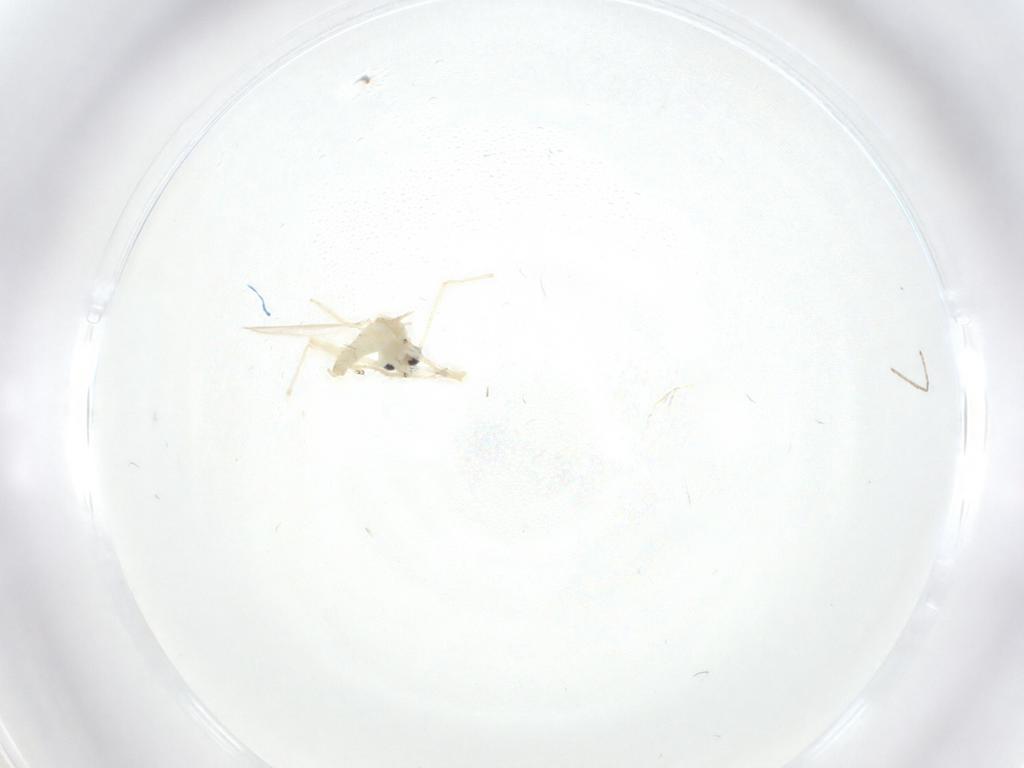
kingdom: Animalia
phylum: Arthropoda
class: Insecta
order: Diptera
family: Chironomidae
